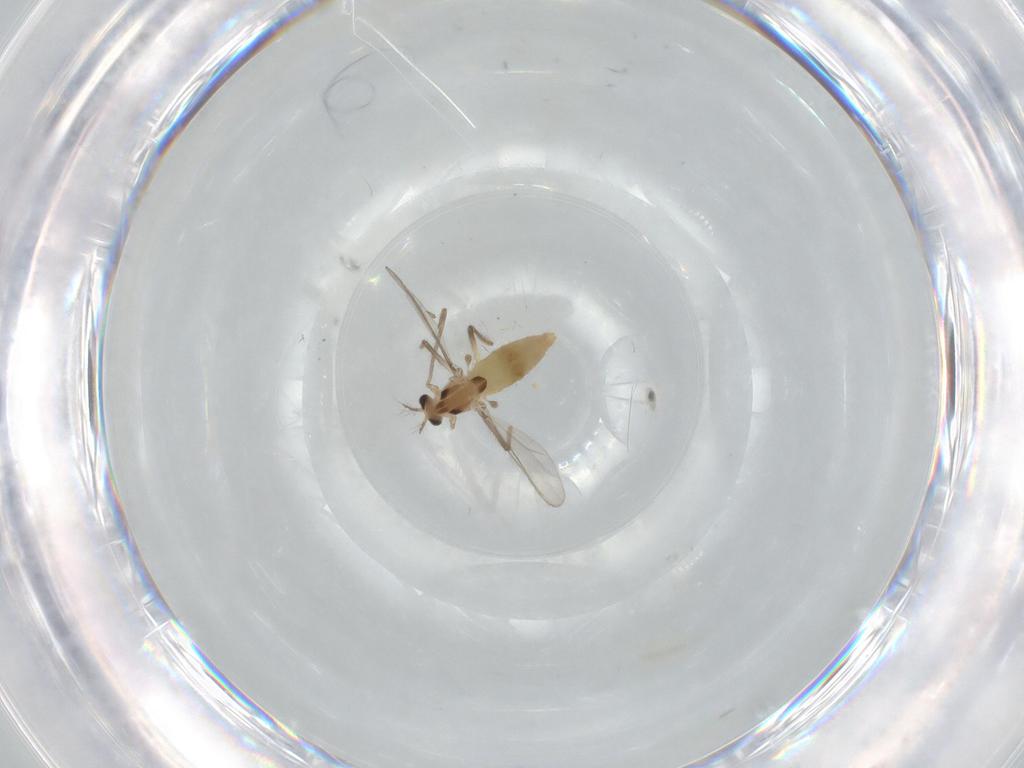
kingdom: Animalia
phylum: Arthropoda
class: Insecta
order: Diptera
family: Chironomidae
